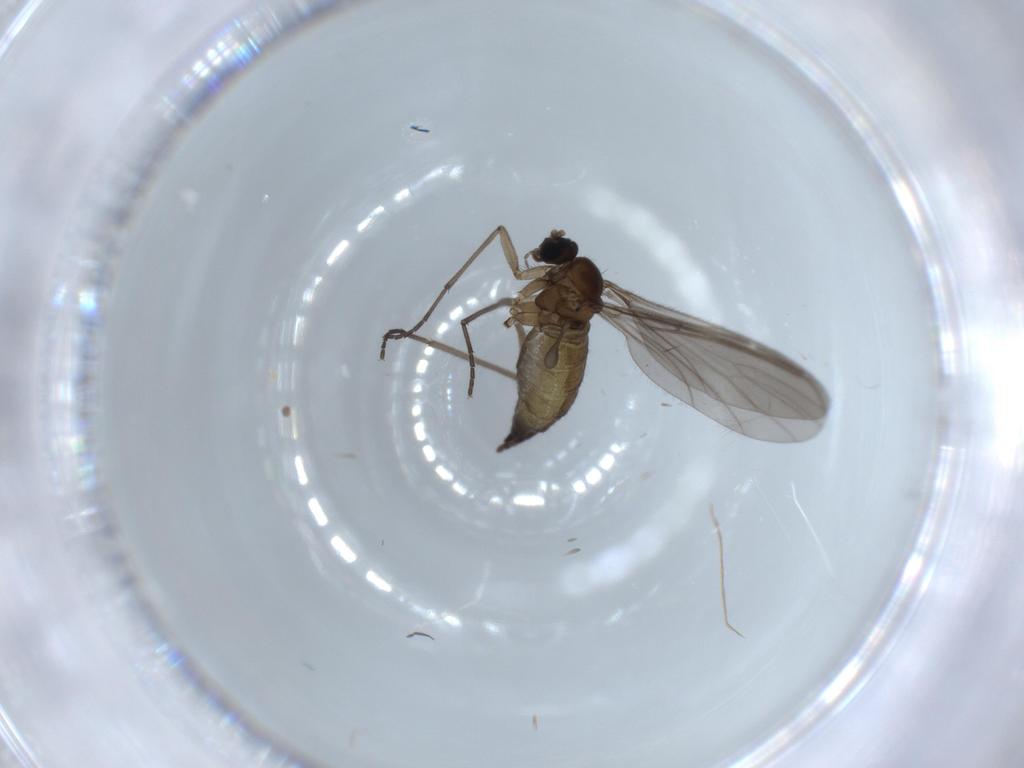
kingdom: Animalia
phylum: Arthropoda
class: Insecta
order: Diptera
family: Sciaridae
